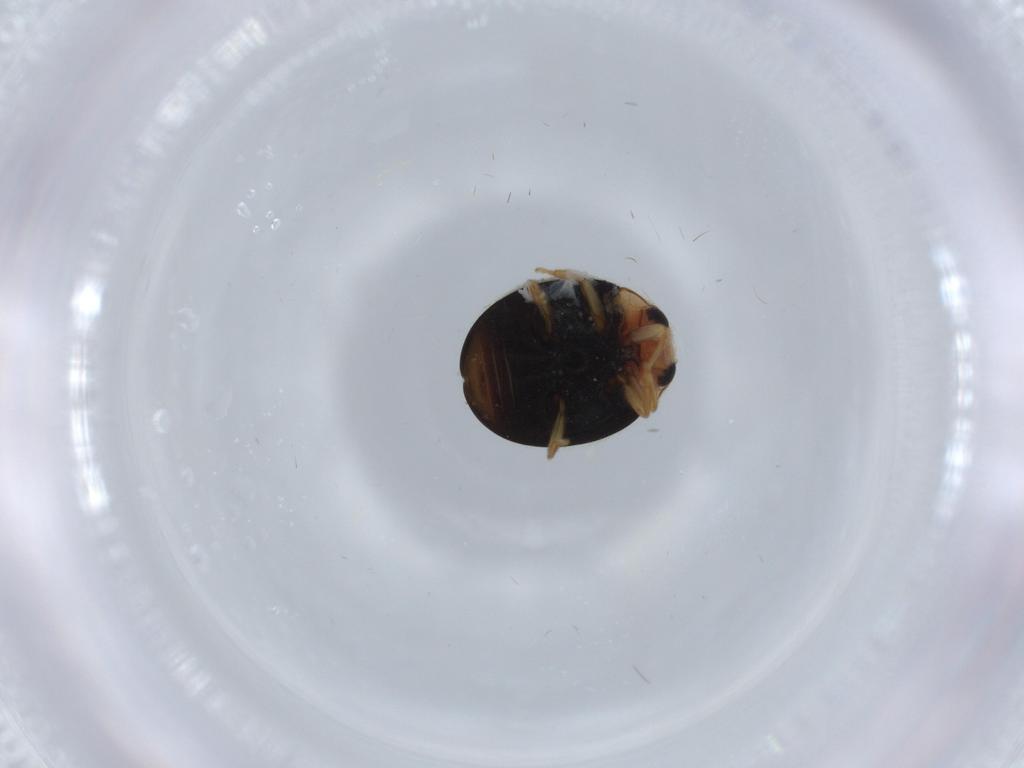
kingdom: Animalia
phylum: Arthropoda
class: Insecta
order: Coleoptera
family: Coccinellidae
